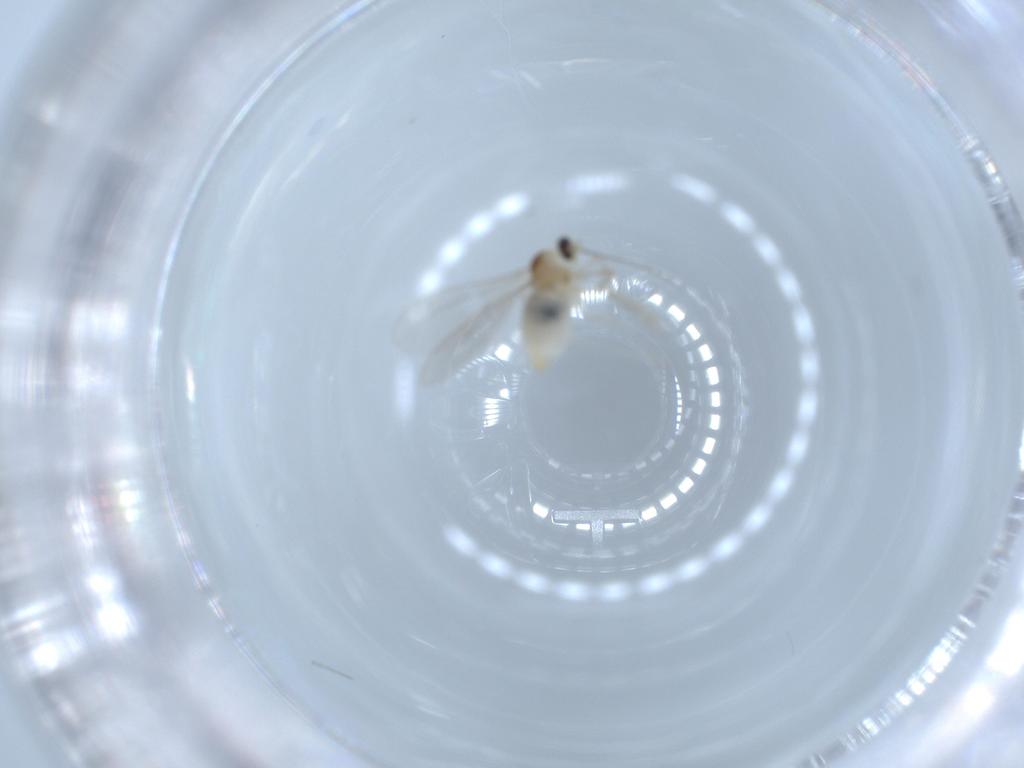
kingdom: Animalia
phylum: Arthropoda
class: Insecta
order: Diptera
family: Cecidomyiidae
